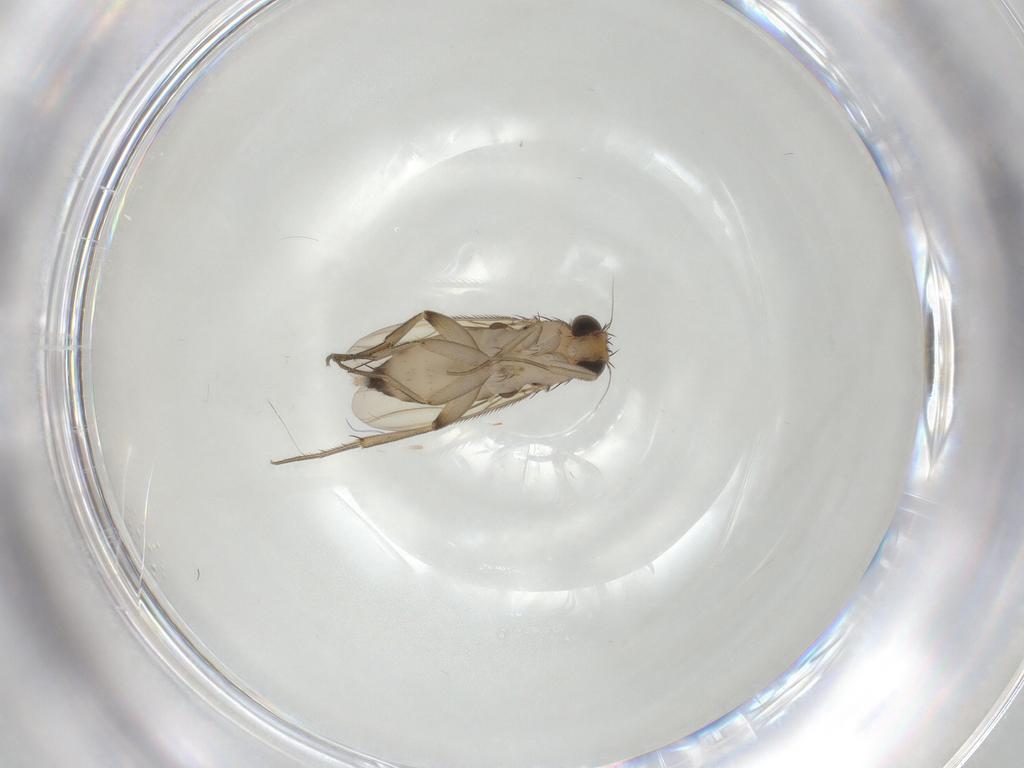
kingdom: Animalia
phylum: Arthropoda
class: Insecta
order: Diptera
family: Phoridae
